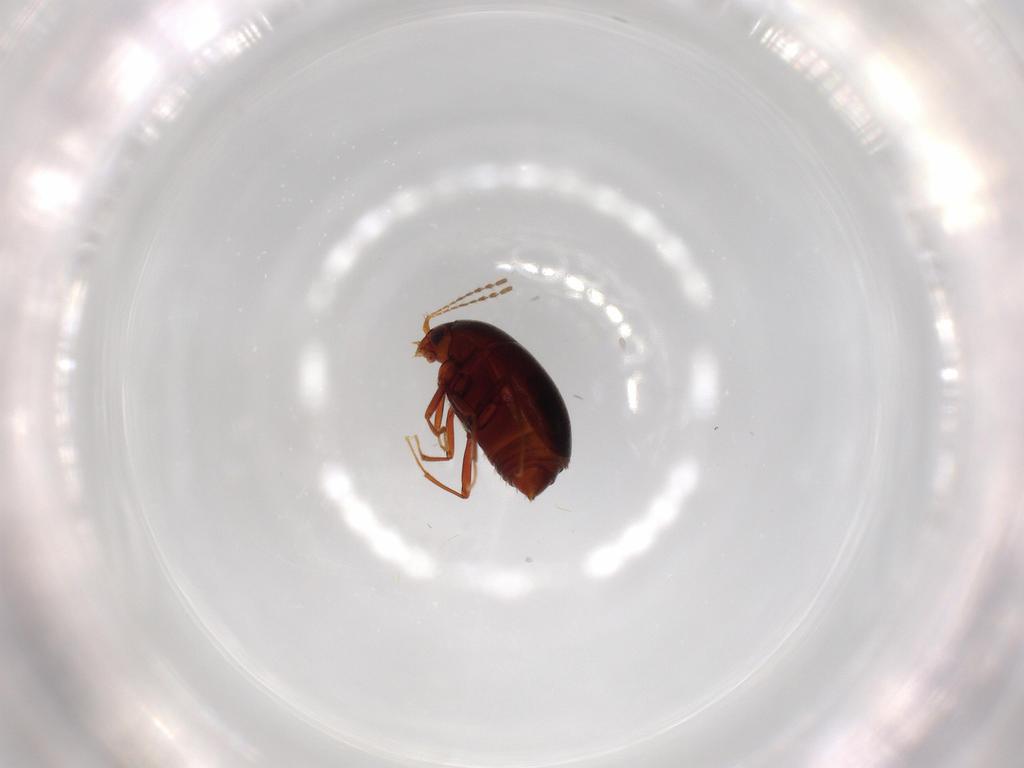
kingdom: Animalia
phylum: Arthropoda
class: Insecta
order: Coleoptera
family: Staphylinidae
